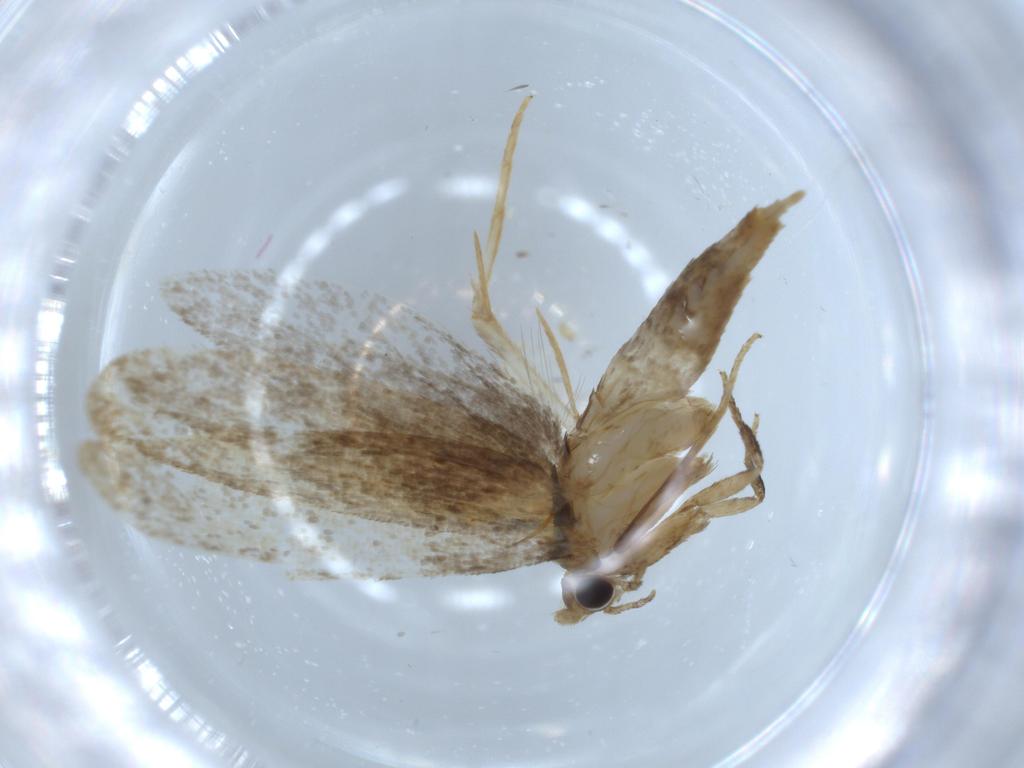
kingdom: Animalia
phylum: Arthropoda
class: Insecta
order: Lepidoptera
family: Tineidae
